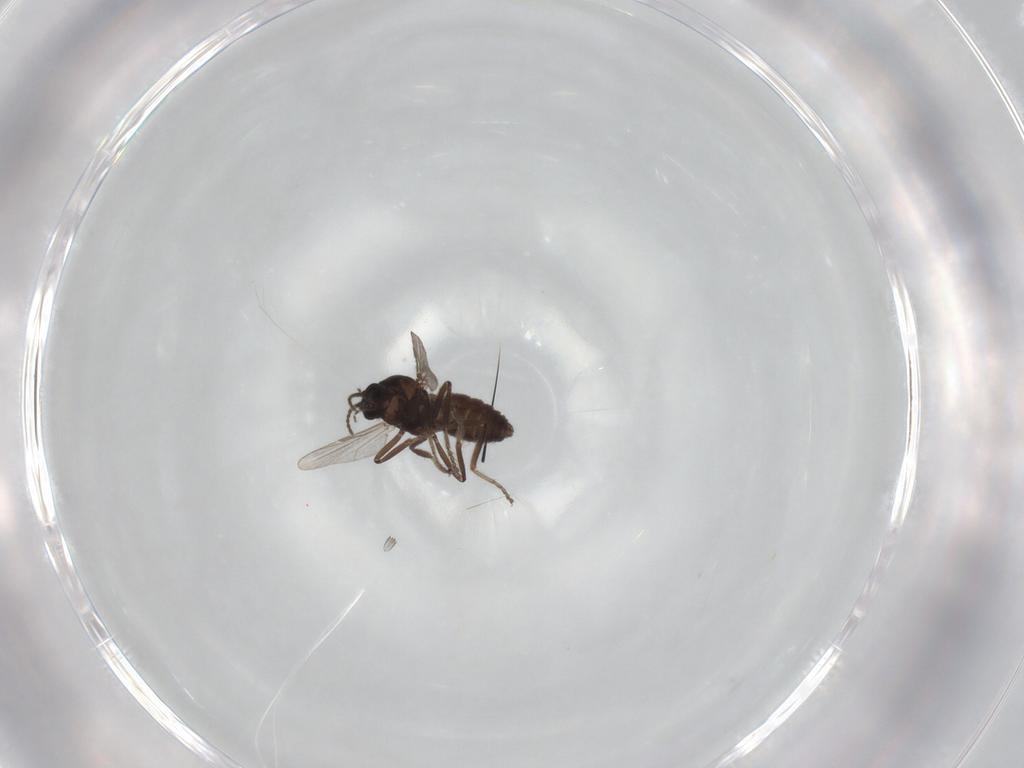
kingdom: Animalia
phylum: Arthropoda
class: Insecta
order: Diptera
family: Ceratopogonidae
